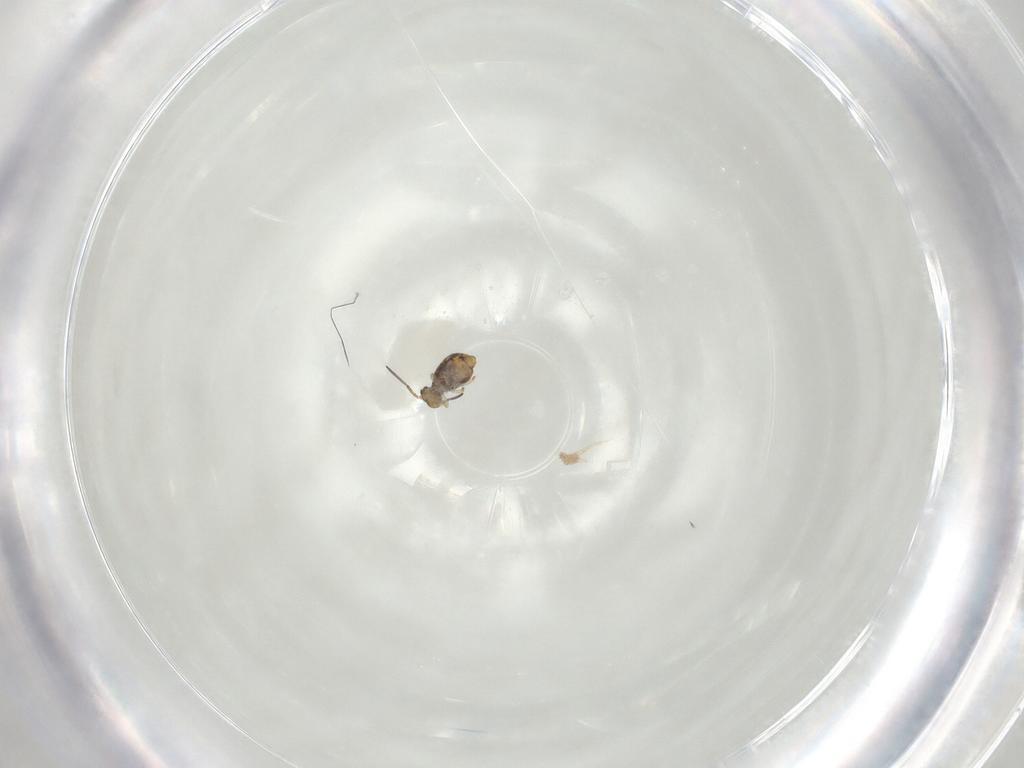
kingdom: Animalia
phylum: Arthropoda
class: Collembola
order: Symphypleona
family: Katiannidae
